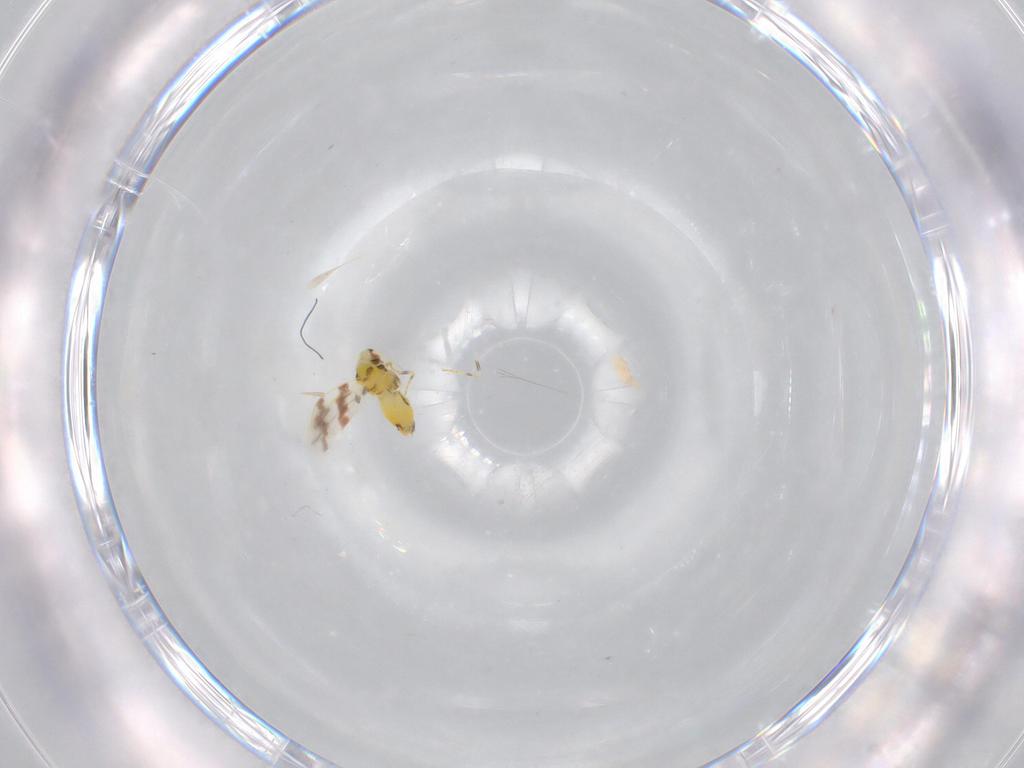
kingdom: Animalia
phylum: Arthropoda
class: Insecta
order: Hemiptera
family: Aleyrodidae
